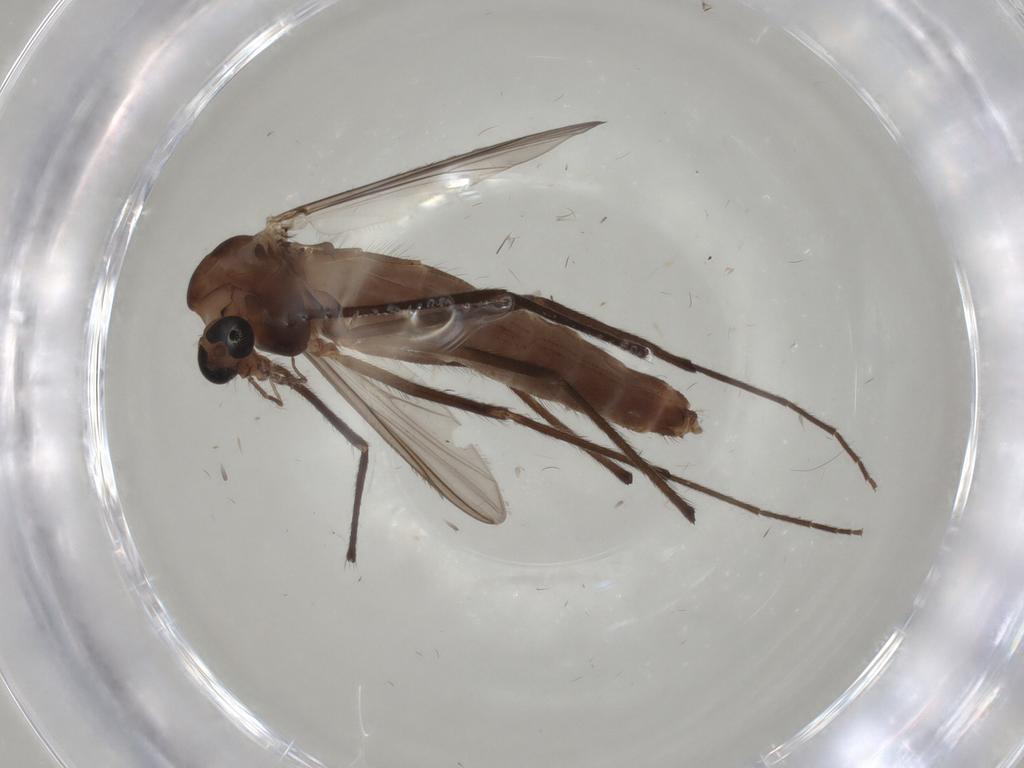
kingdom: Animalia
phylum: Arthropoda
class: Insecta
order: Diptera
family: Chironomidae
